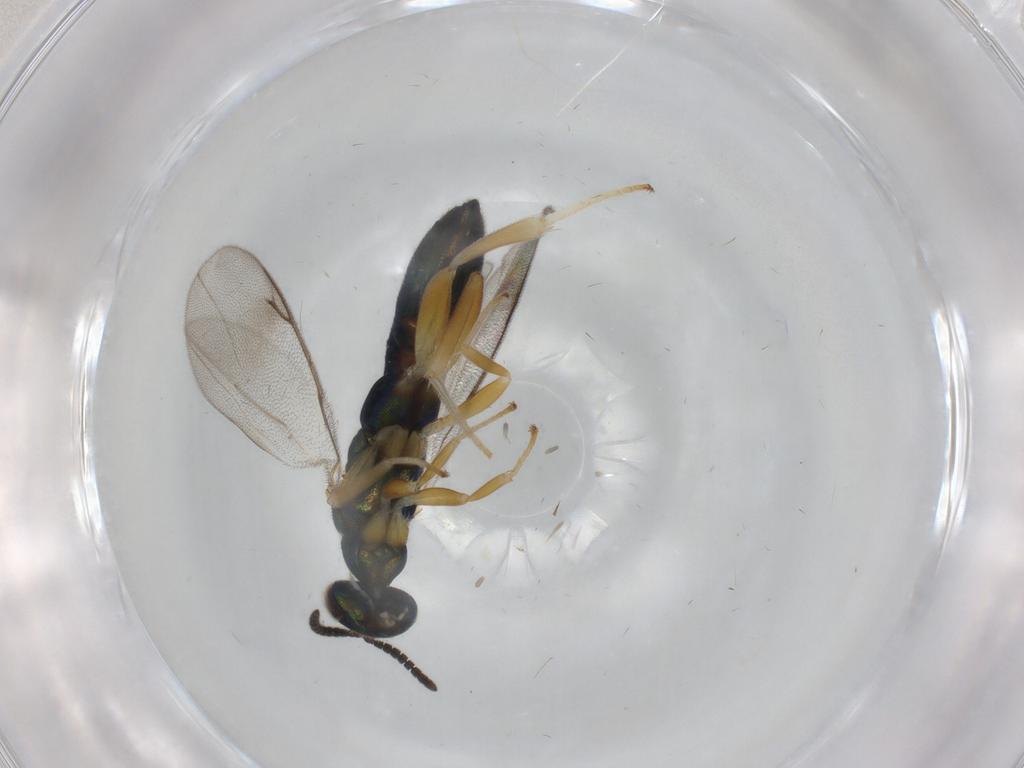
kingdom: Animalia
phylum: Arthropoda
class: Insecta
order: Hymenoptera
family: Cleonyminae
